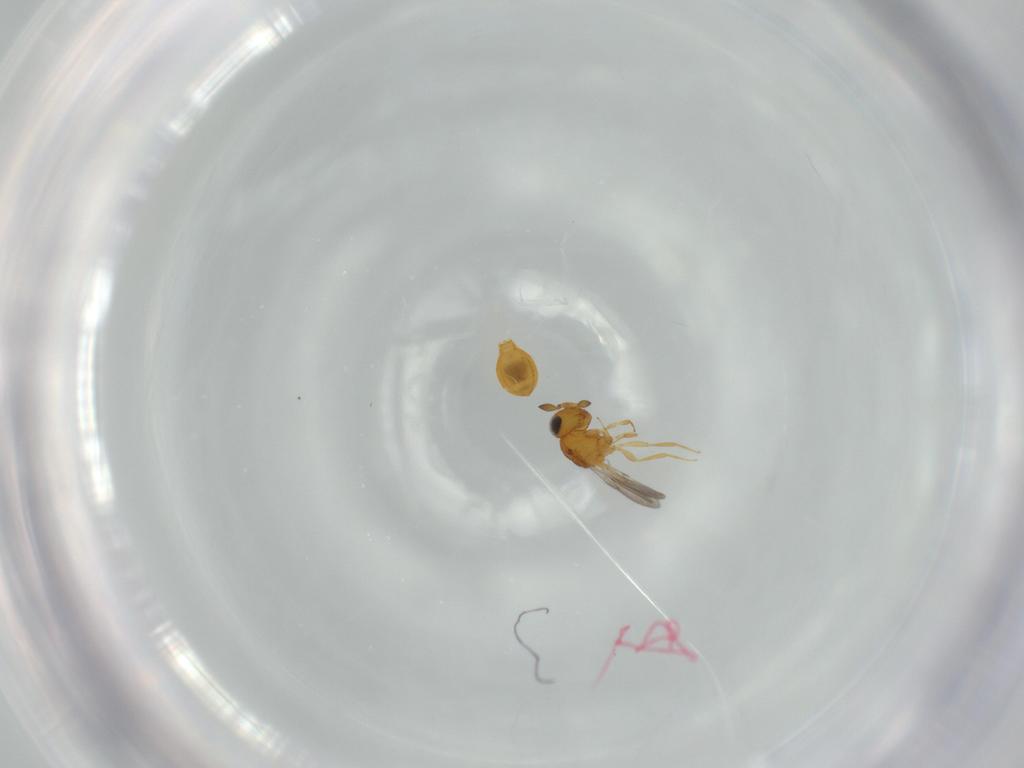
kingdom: Animalia
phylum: Arthropoda
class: Insecta
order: Hymenoptera
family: Scelionidae
